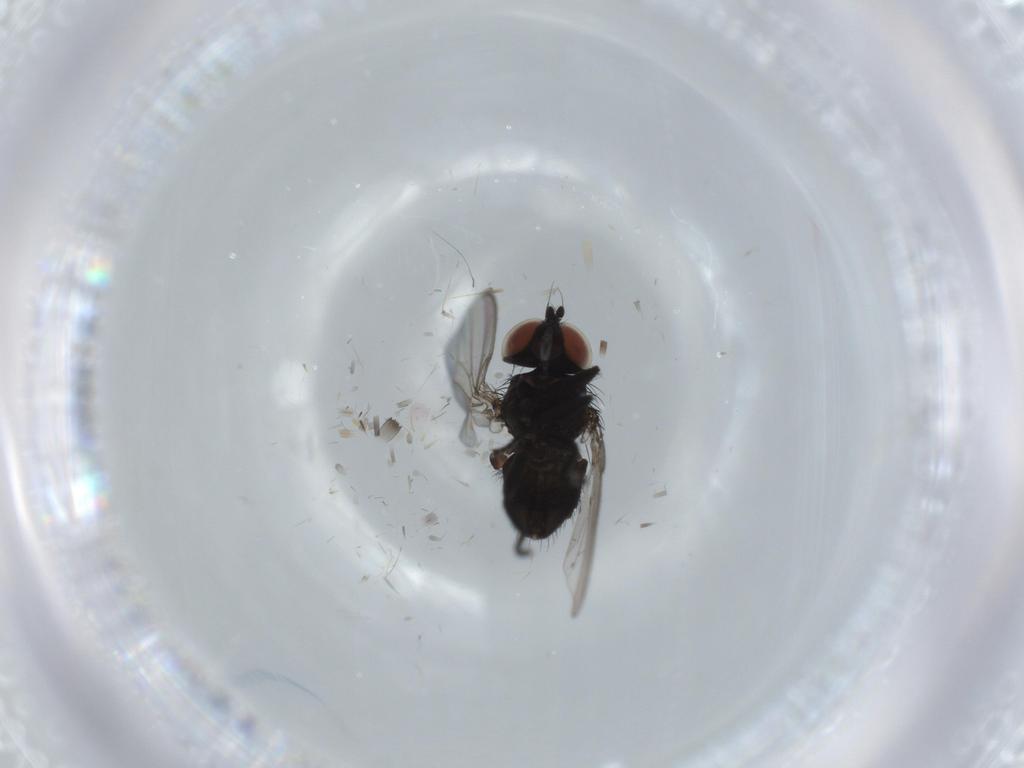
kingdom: Animalia
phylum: Arthropoda
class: Insecta
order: Diptera
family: Milichiidae
